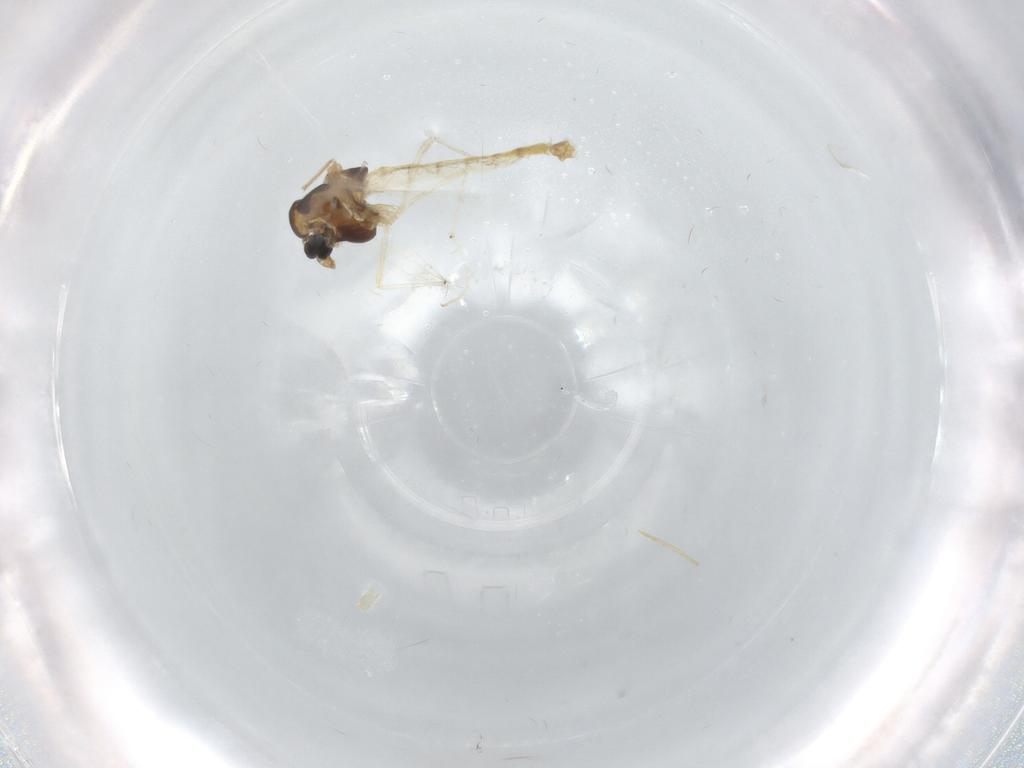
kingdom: Animalia
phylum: Arthropoda
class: Insecta
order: Diptera
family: Chironomidae
